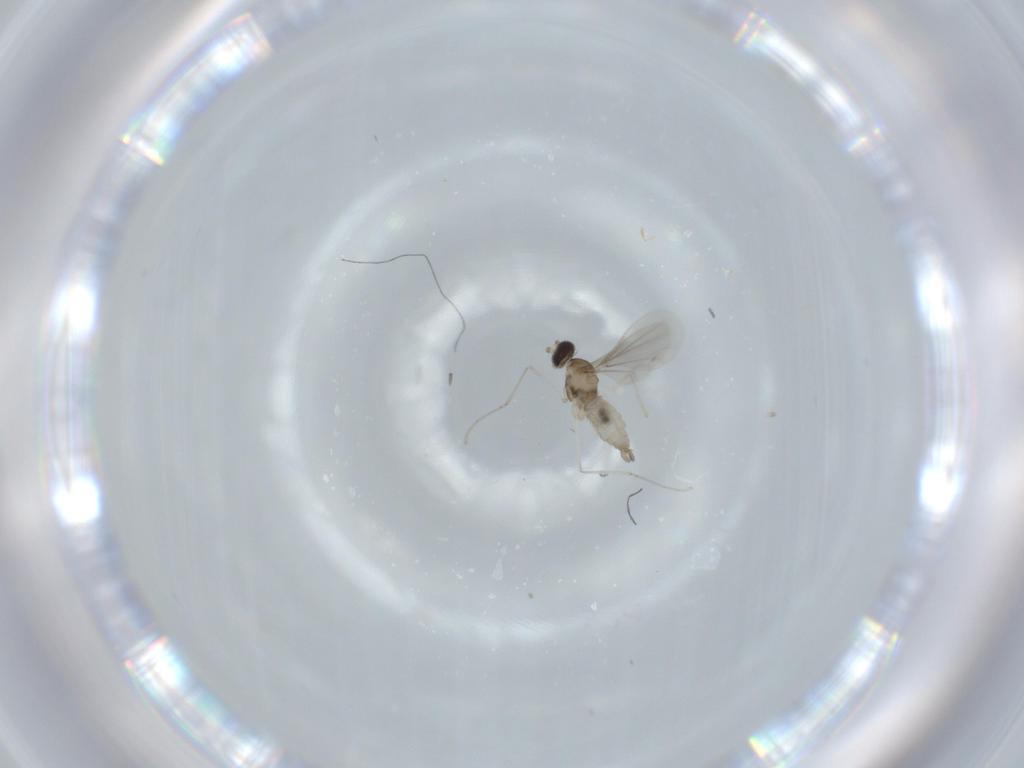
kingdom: Animalia
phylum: Arthropoda
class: Insecta
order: Diptera
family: Cecidomyiidae
